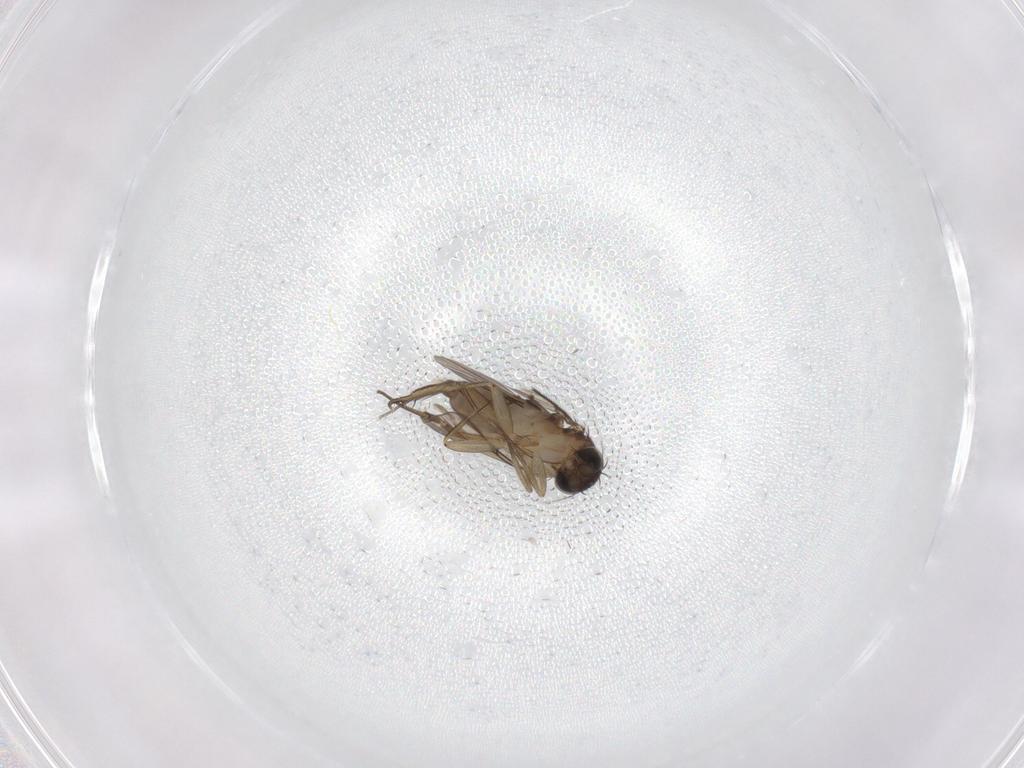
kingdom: Animalia
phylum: Arthropoda
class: Insecta
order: Diptera
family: Phoridae
